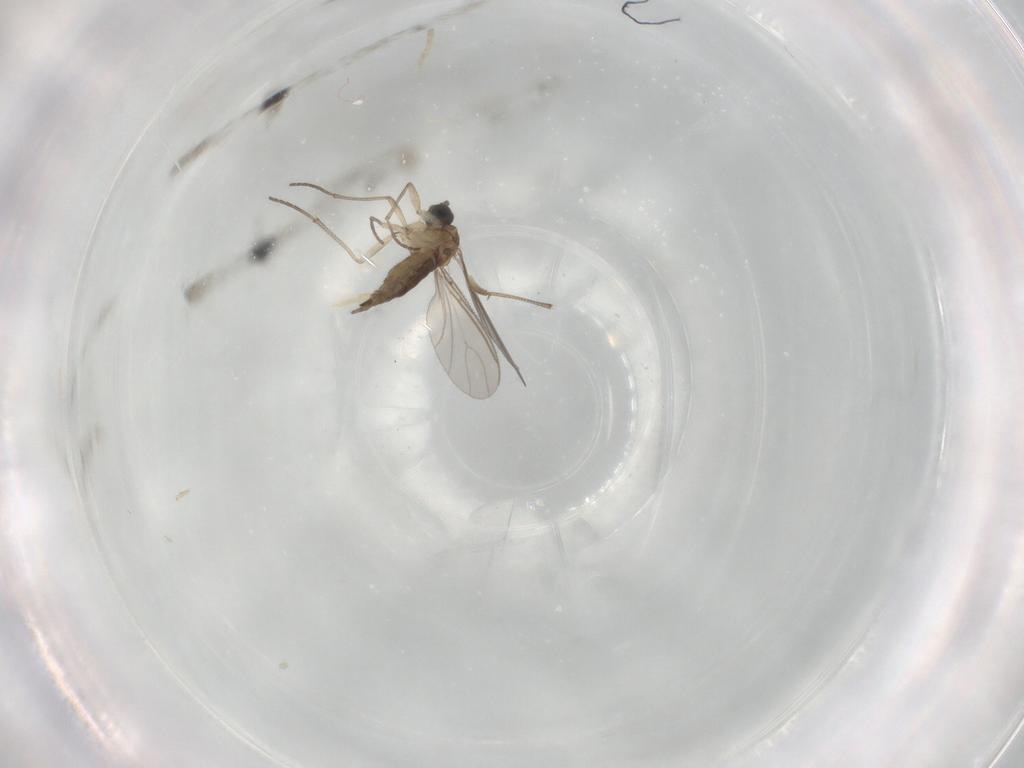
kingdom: Animalia
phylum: Arthropoda
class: Insecta
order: Diptera
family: Sciaridae
